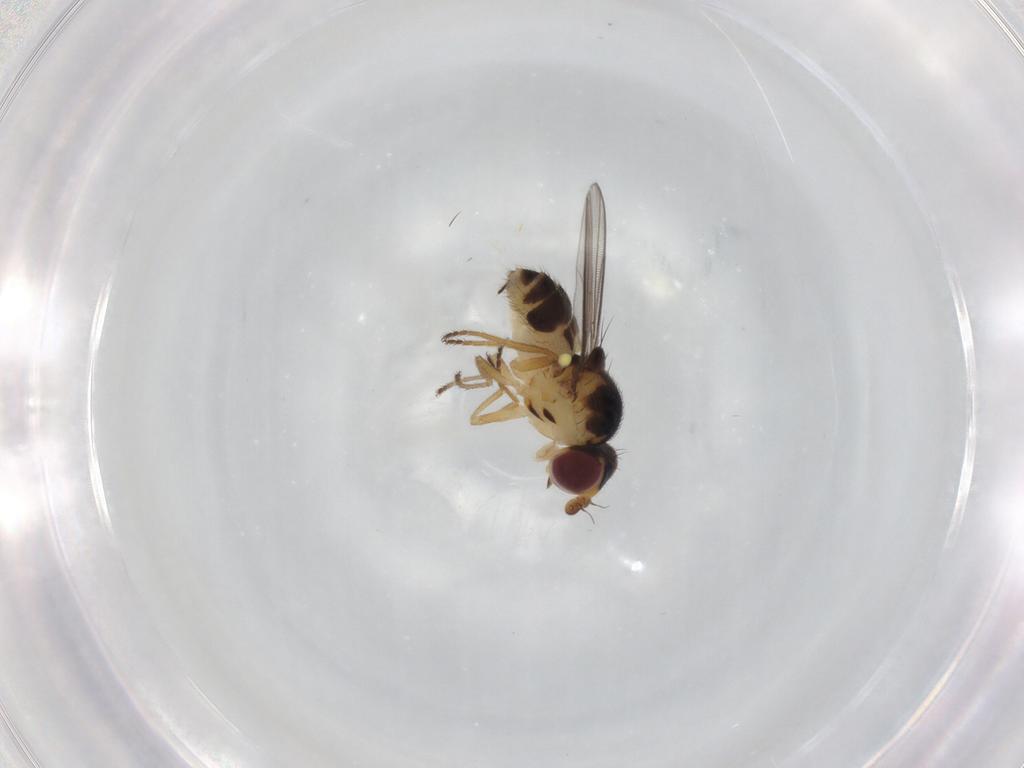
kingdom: Animalia
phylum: Arthropoda
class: Insecta
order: Diptera
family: Chloropidae
